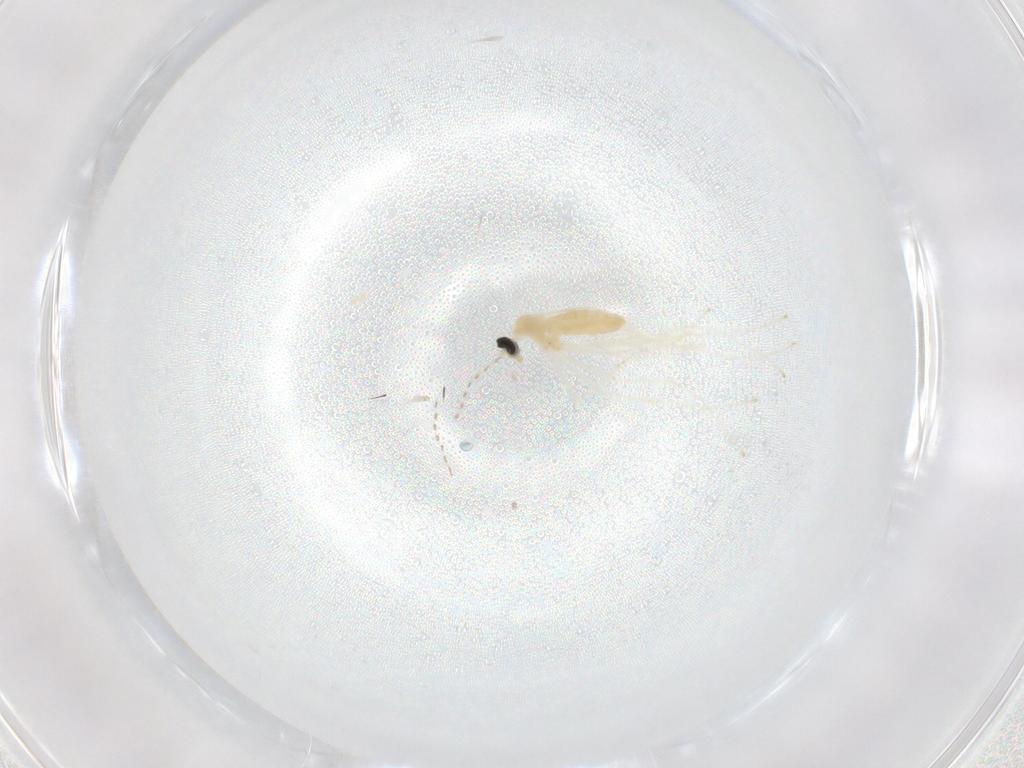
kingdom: Animalia
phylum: Arthropoda
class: Insecta
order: Diptera
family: Cecidomyiidae
